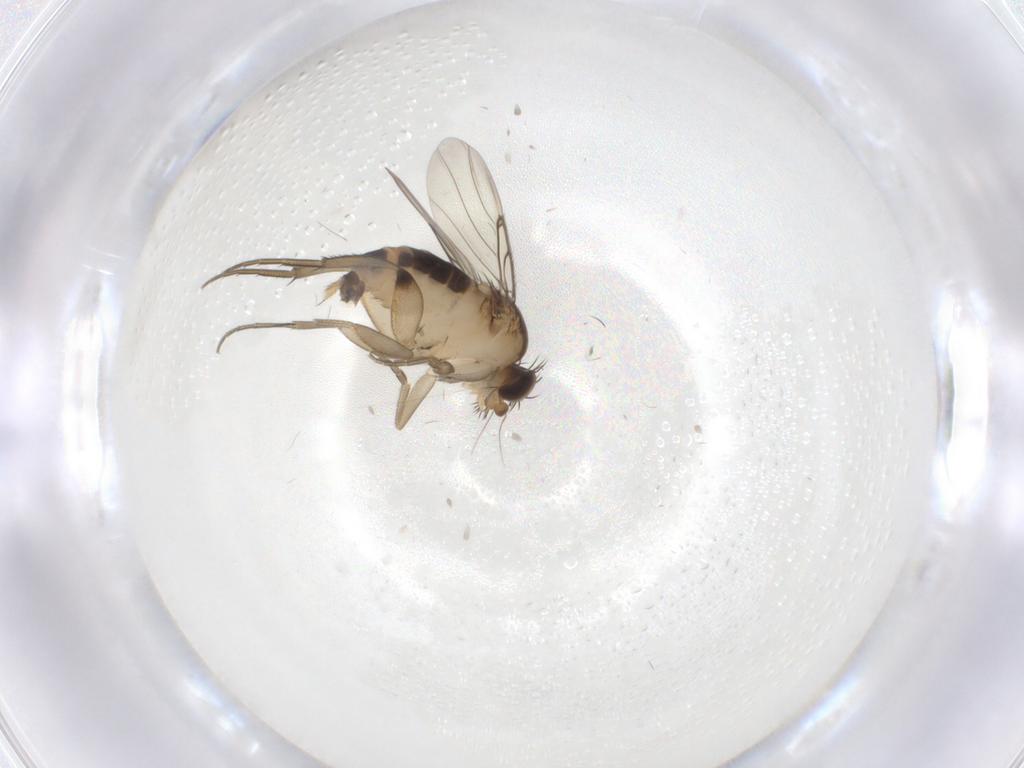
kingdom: Animalia
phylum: Arthropoda
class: Insecta
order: Diptera
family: Phoridae
